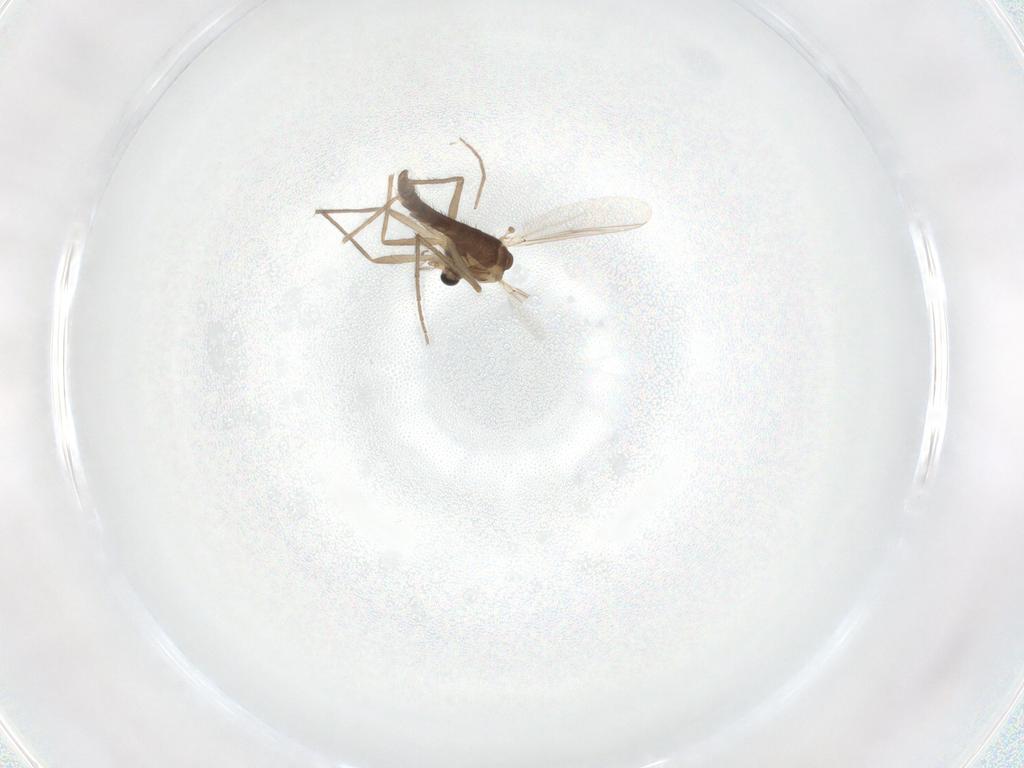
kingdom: Animalia
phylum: Arthropoda
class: Insecta
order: Diptera
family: Chironomidae
